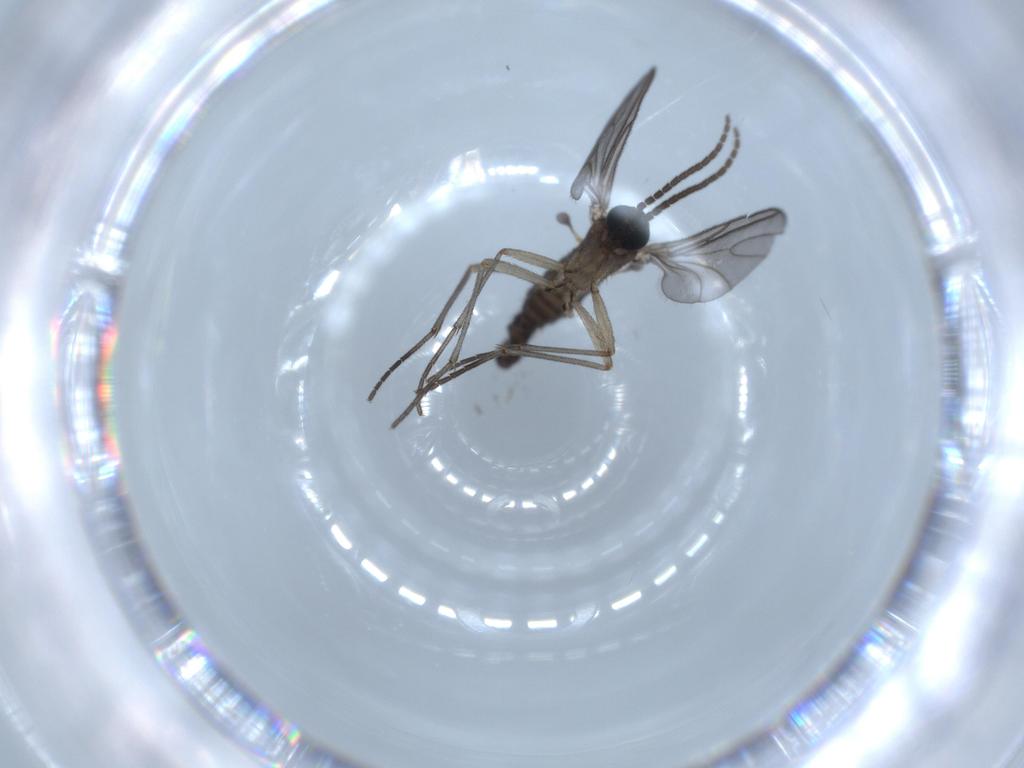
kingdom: Animalia
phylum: Arthropoda
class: Insecta
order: Diptera
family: Sciaridae
